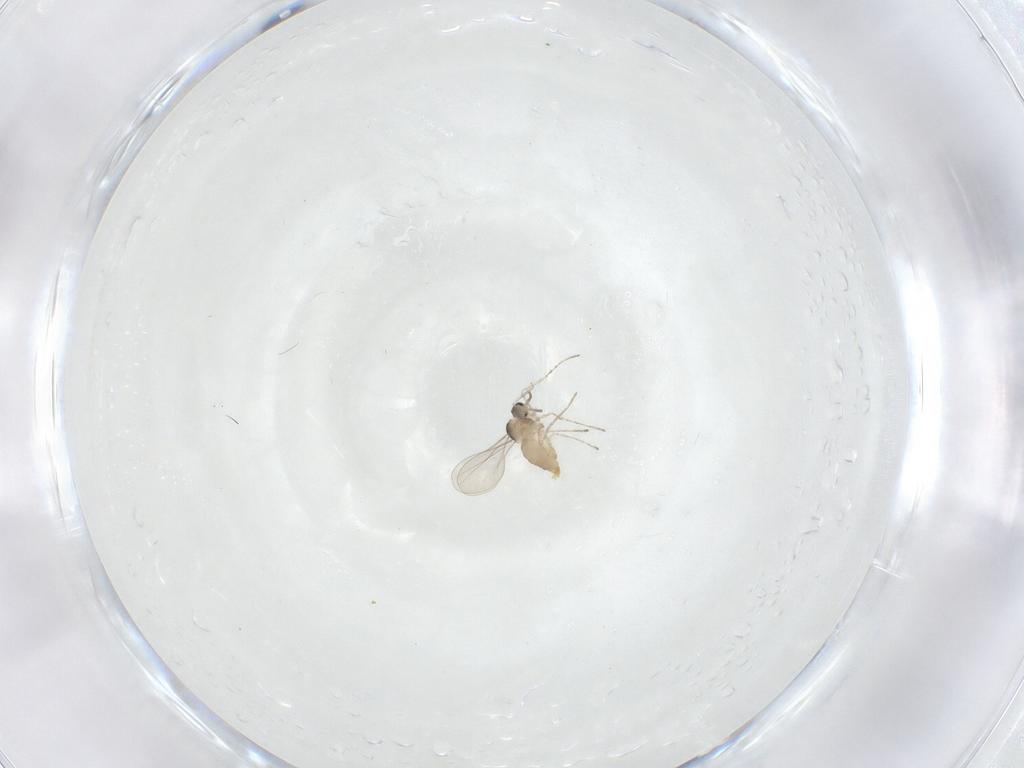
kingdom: Animalia
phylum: Arthropoda
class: Insecta
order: Diptera
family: Cecidomyiidae
